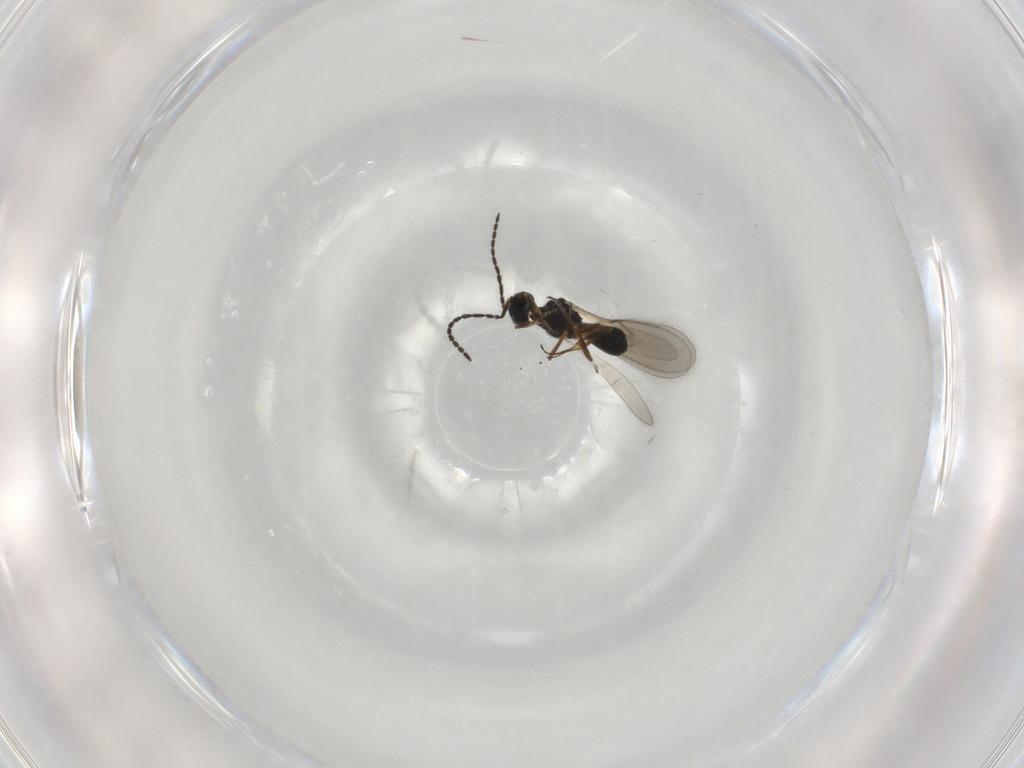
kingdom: Animalia
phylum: Arthropoda
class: Insecta
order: Hymenoptera
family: Scelionidae
